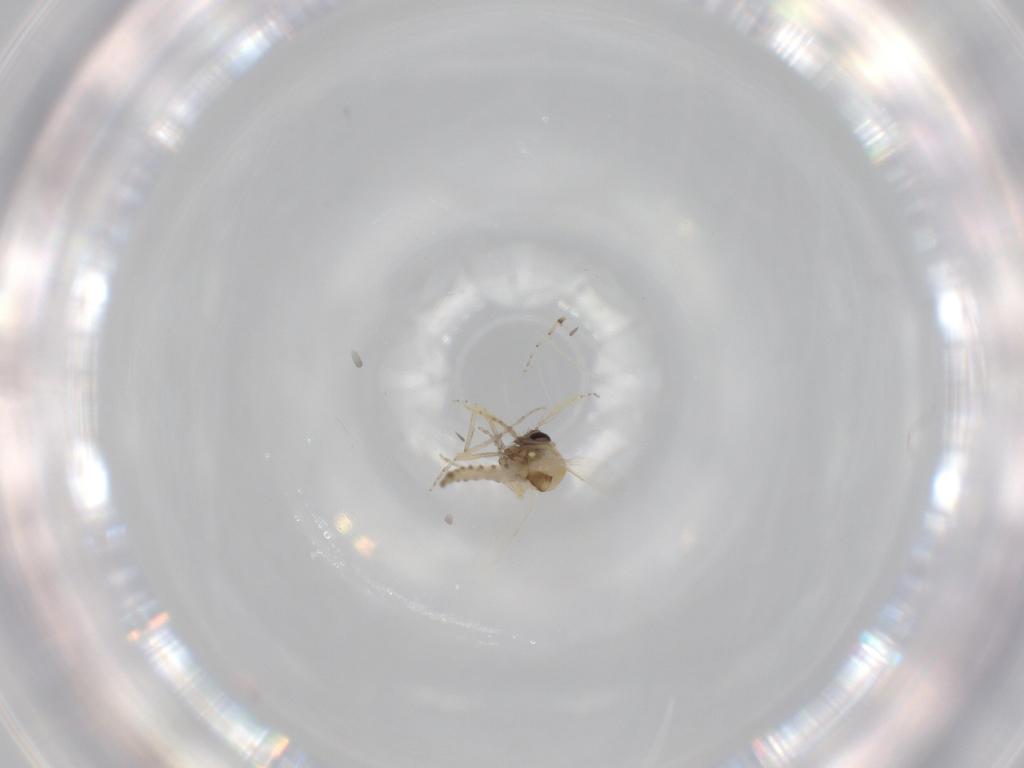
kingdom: Animalia
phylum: Arthropoda
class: Insecta
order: Diptera
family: Ceratopogonidae
